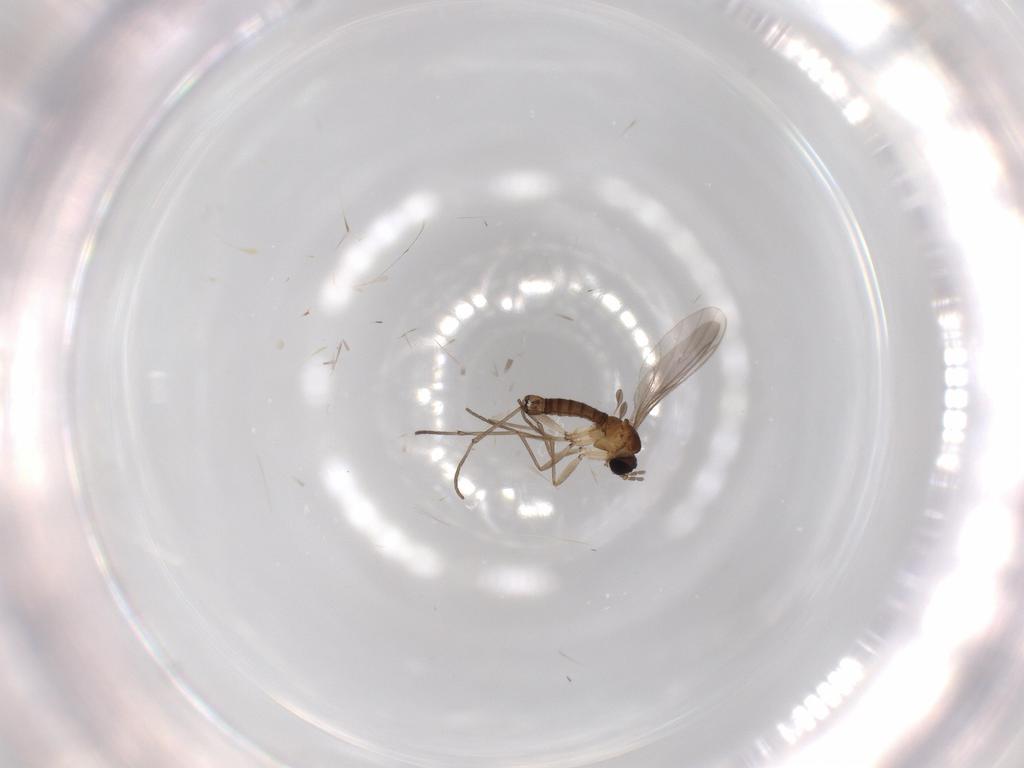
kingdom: Animalia
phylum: Arthropoda
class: Insecta
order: Diptera
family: Sciaridae
